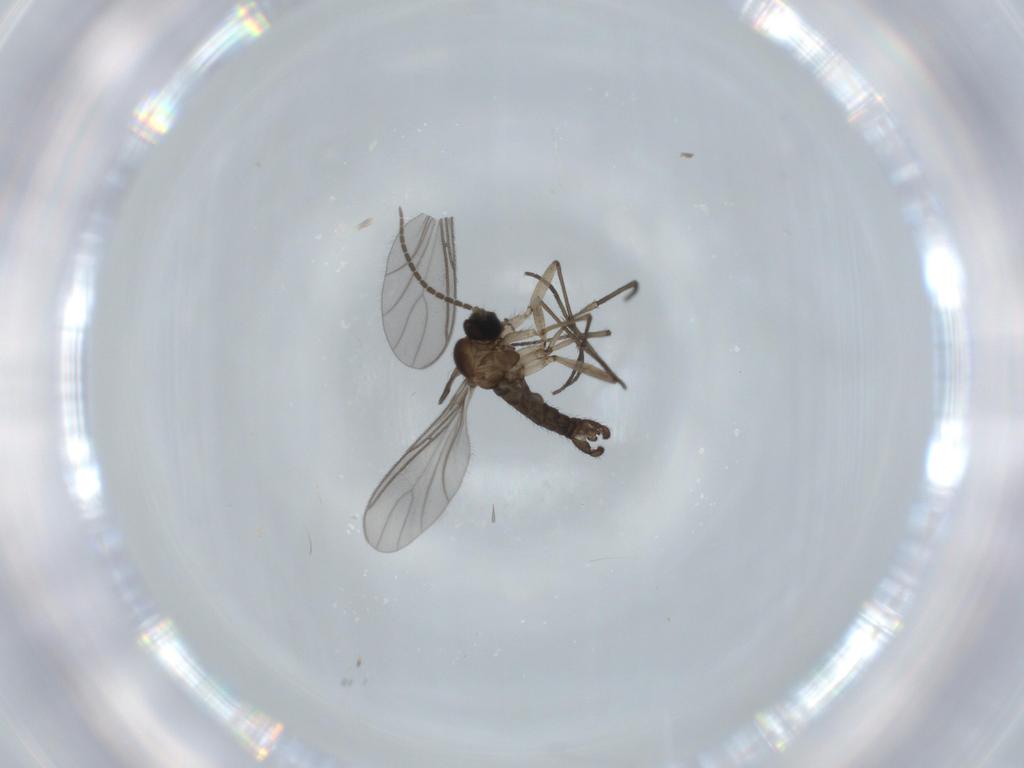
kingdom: Animalia
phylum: Arthropoda
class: Insecta
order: Diptera
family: Sciaridae
